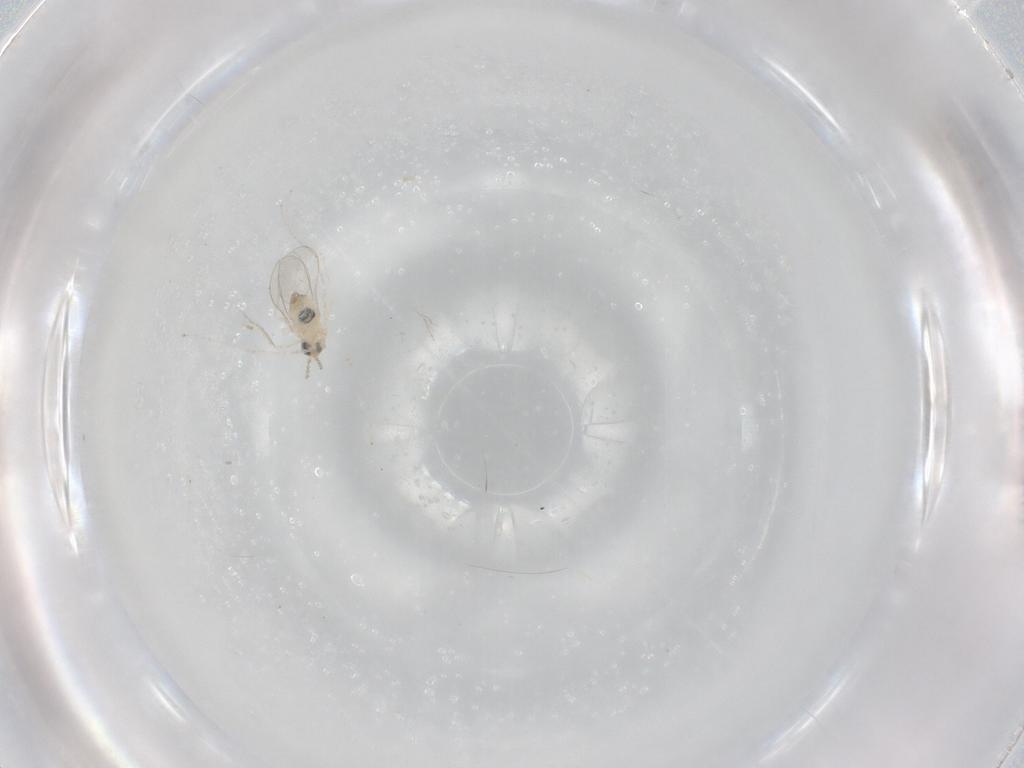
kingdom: Animalia
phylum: Arthropoda
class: Insecta
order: Diptera
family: Cecidomyiidae
